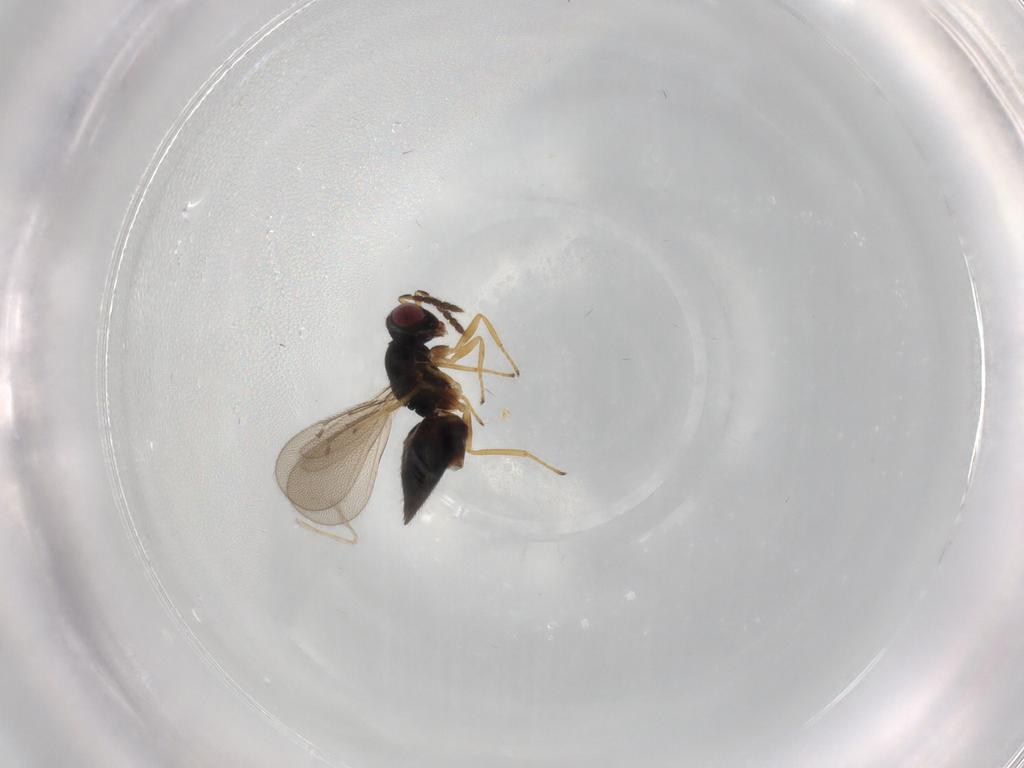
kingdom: Animalia
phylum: Arthropoda
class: Insecta
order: Hymenoptera
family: Eulophidae
